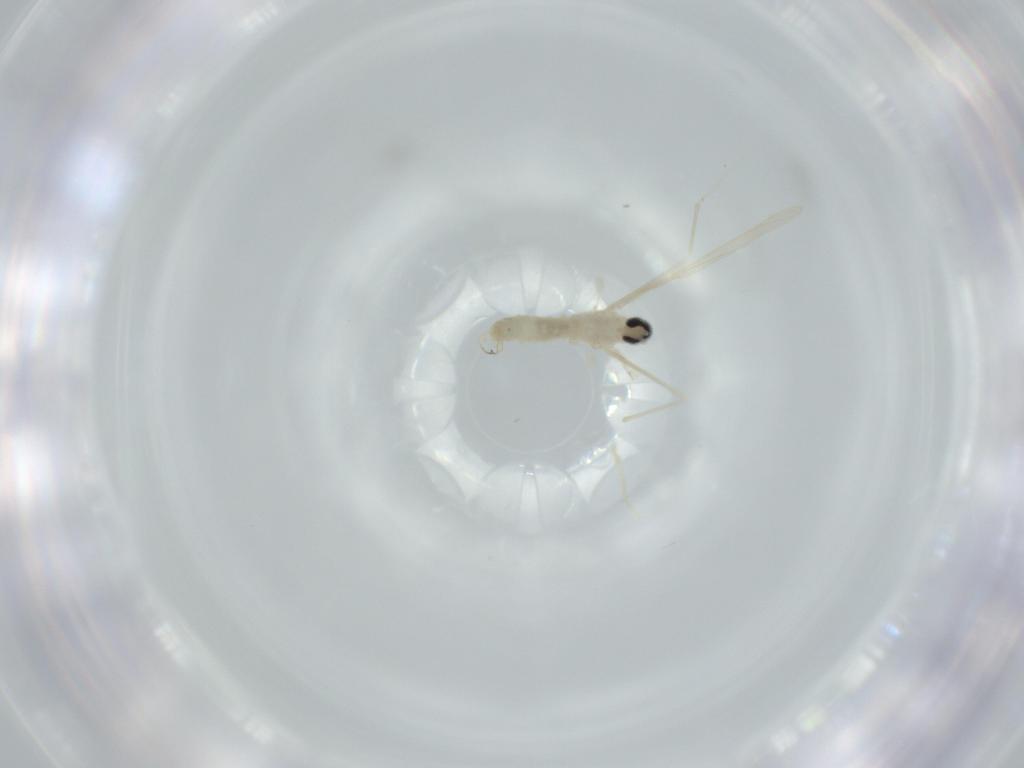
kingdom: Animalia
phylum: Arthropoda
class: Insecta
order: Diptera
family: Cecidomyiidae
